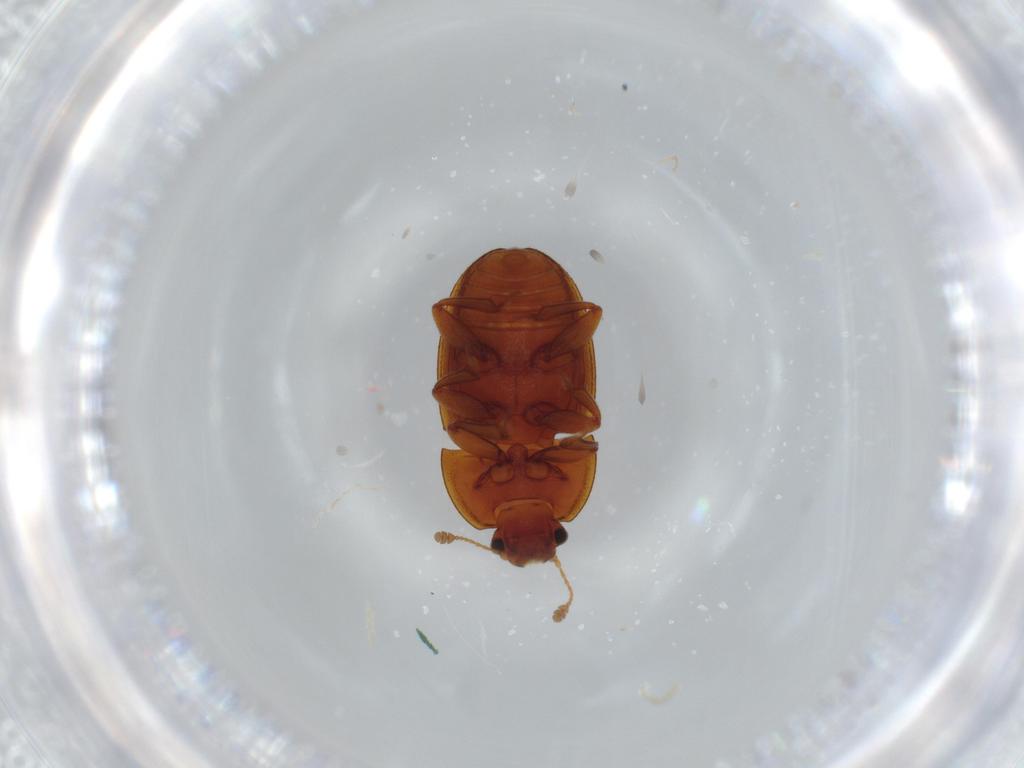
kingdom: Animalia
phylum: Arthropoda
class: Insecta
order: Coleoptera
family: Nitidulidae
